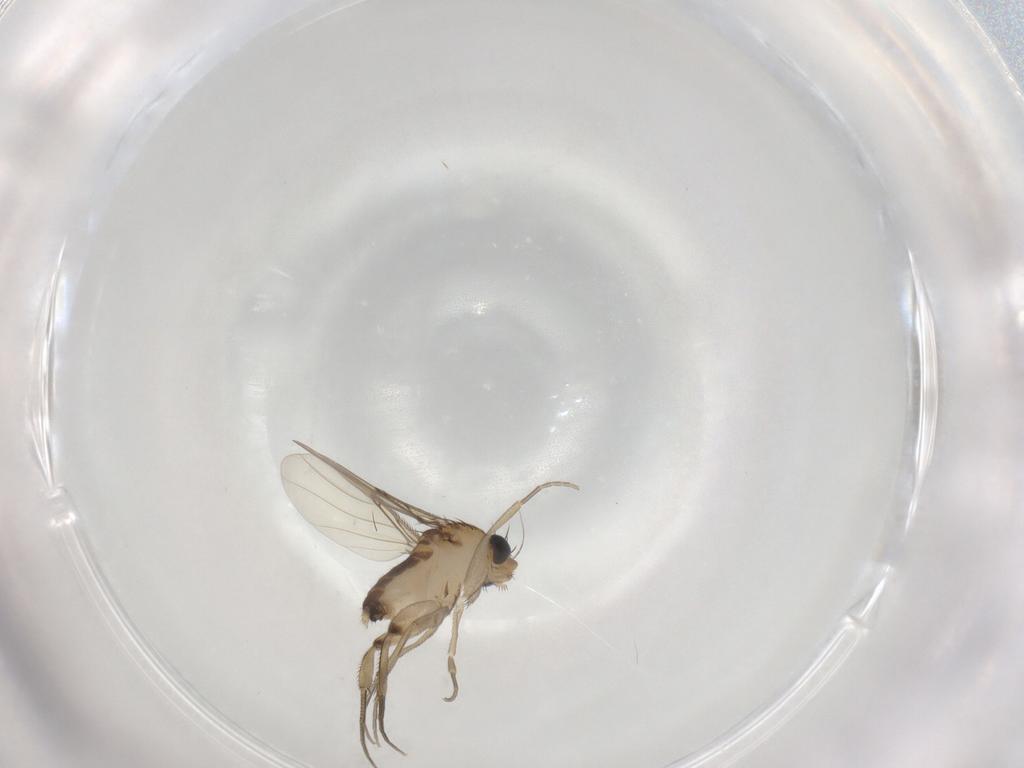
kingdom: Animalia
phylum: Arthropoda
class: Insecta
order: Diptera
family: Phoridae
